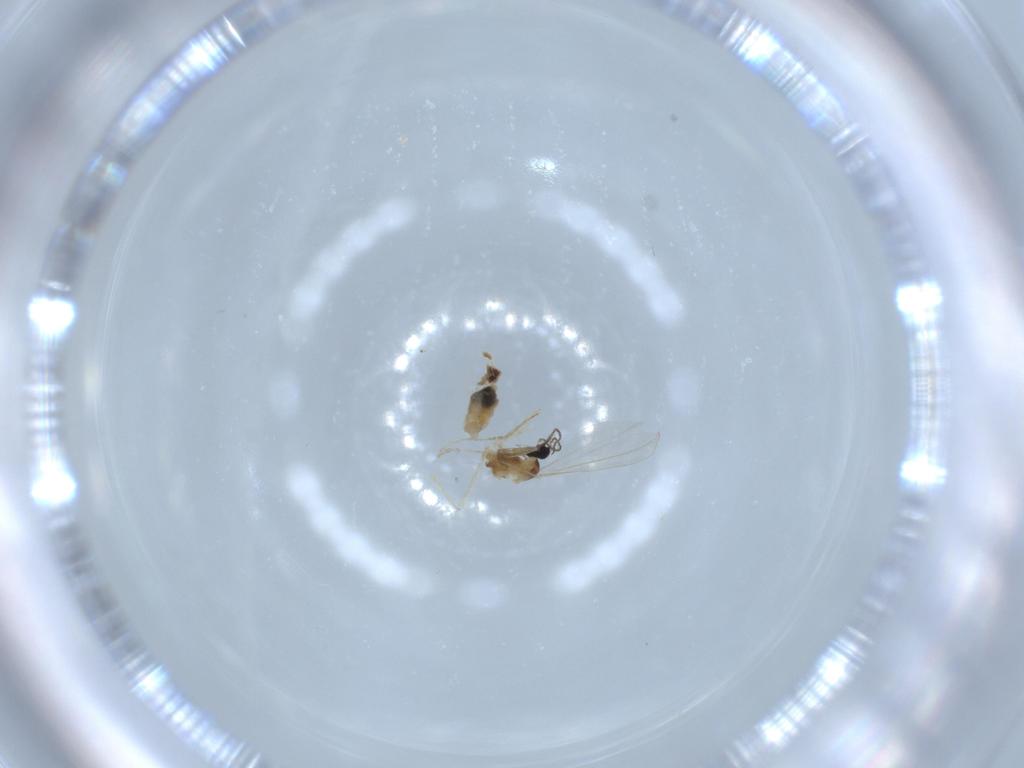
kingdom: Animalia
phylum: Arthropoda
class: Insecta
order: Diptera
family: Cecidomyiidae
